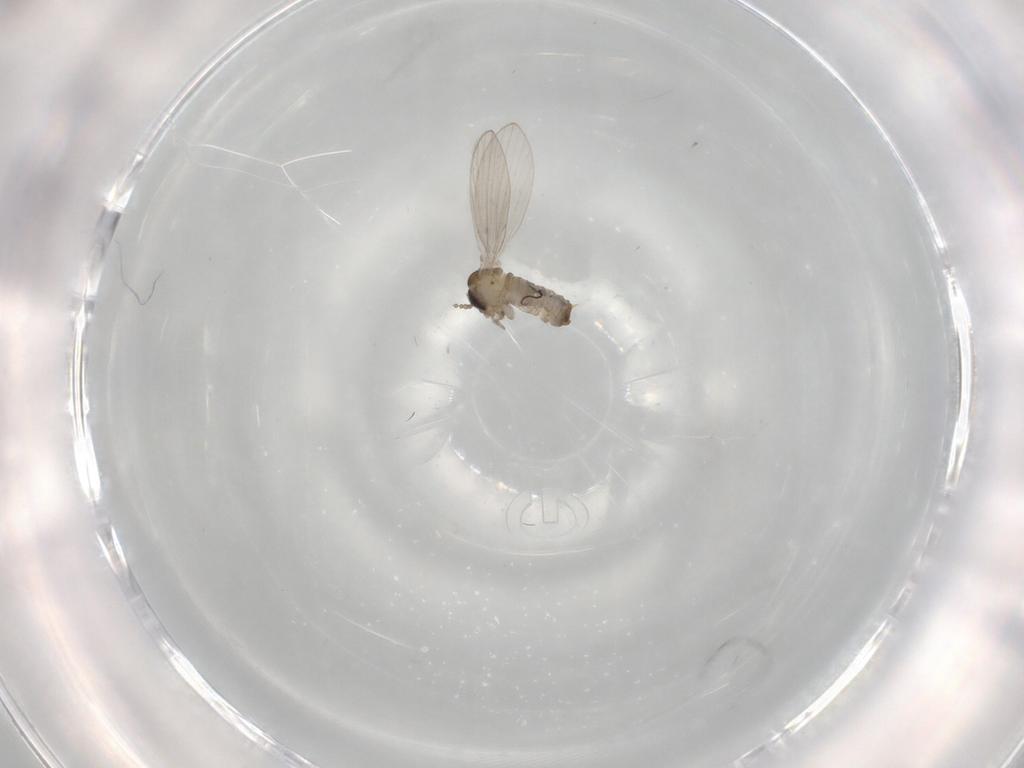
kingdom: Animalia
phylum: Arthropoda
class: Insecta
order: Diptera
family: Psychodidae
